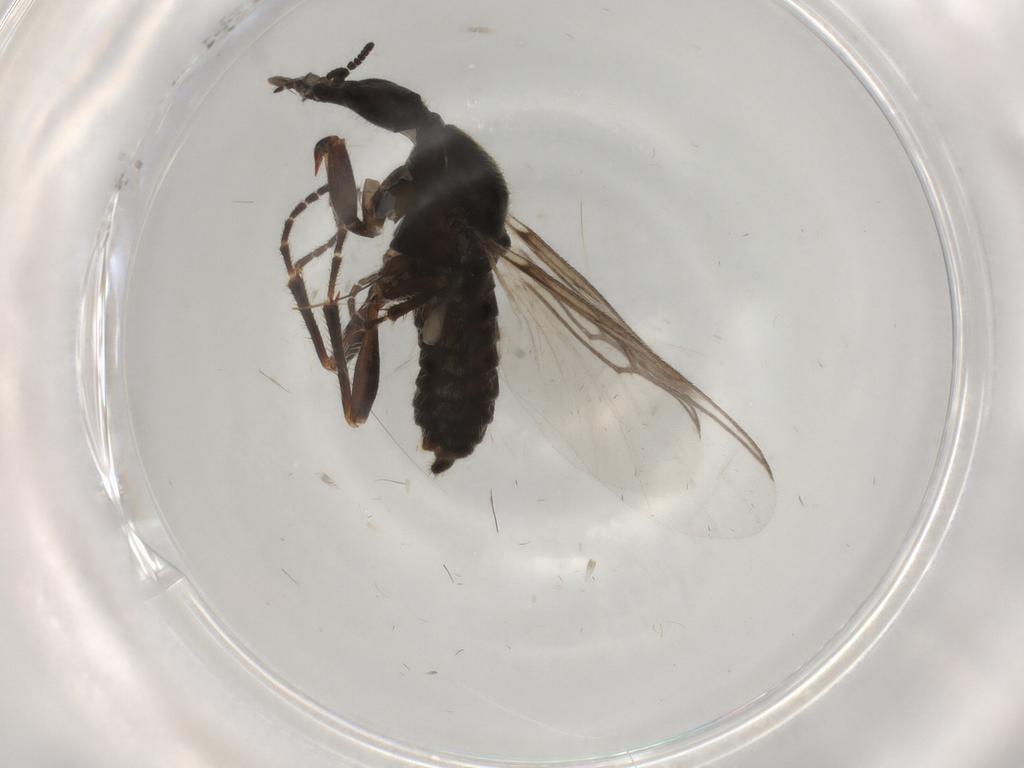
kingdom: Animalia
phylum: Arthropoda
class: Insecta
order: Diptera
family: Bibionidae
